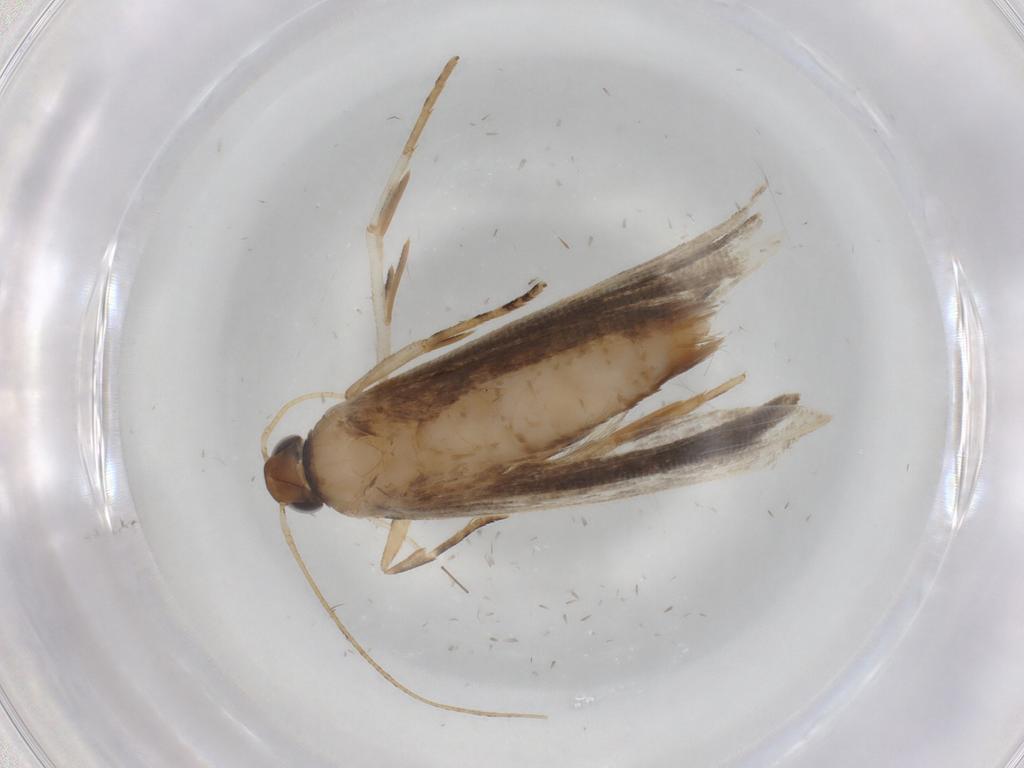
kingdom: Animalia
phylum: Arthropoda
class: Insecta
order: Lepidoptera
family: Gelechiidae
